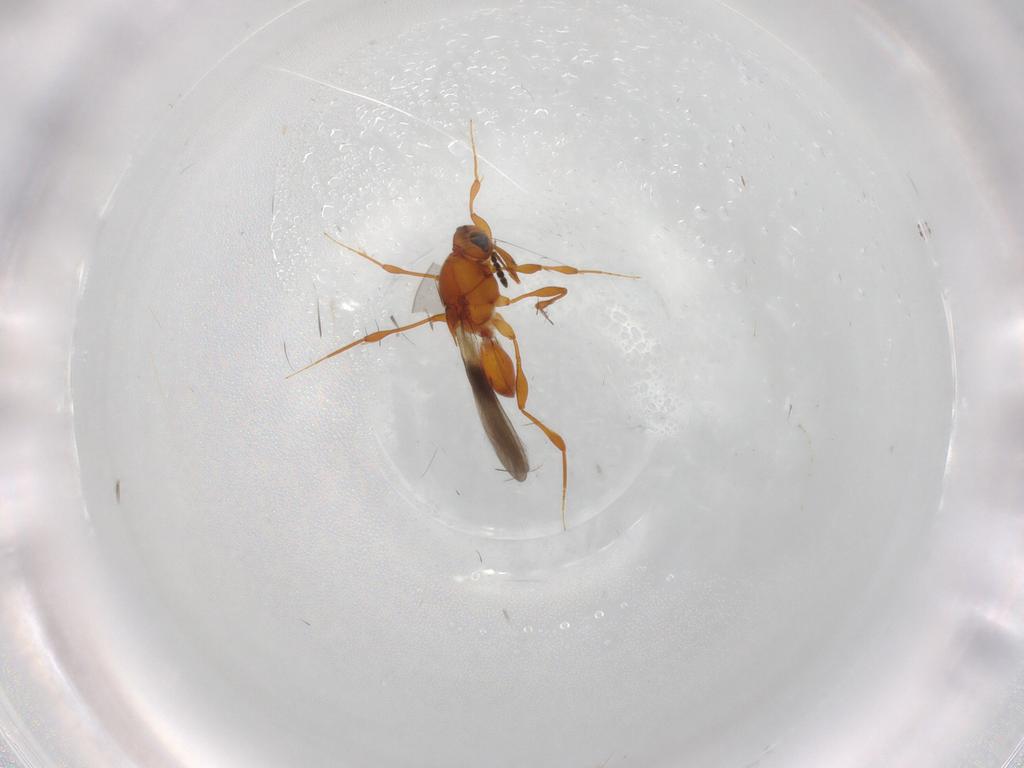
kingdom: Animalia
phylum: Arthropoda
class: Insecta
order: Hymenoptera
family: Platygastridae
